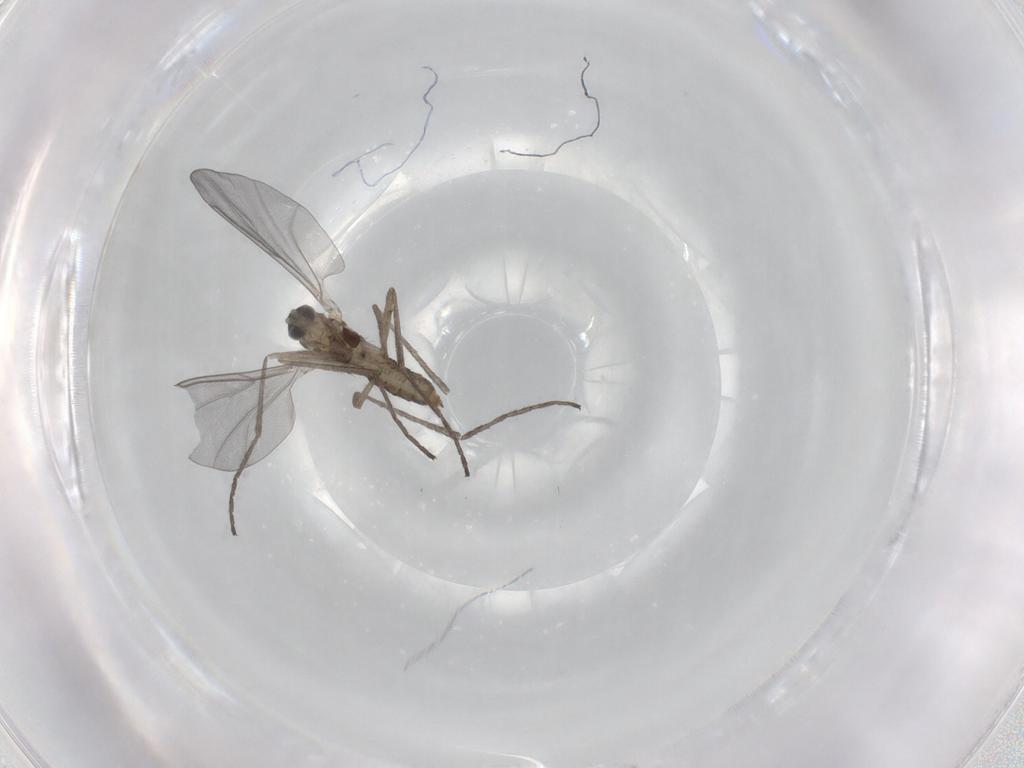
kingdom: Animalia
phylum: Arthropoda
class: Insecta
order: Diptera
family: Cecidomyiidae
